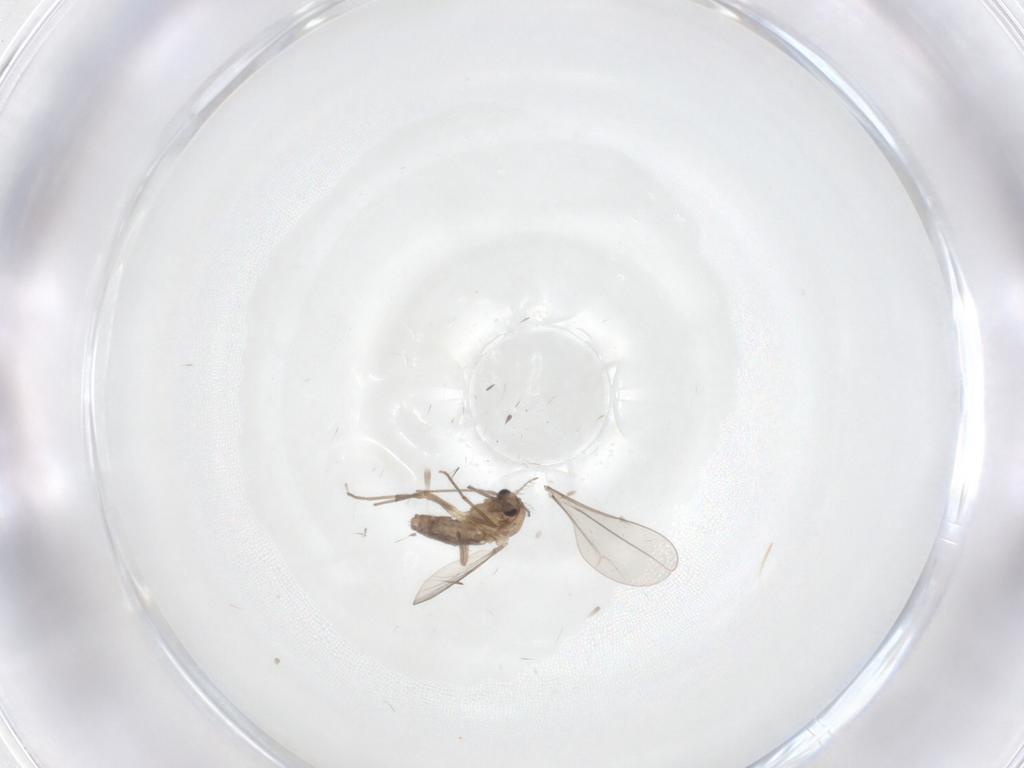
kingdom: Animalia
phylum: Arthropoda
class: Insecta
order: Diptera
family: Chironomidae
